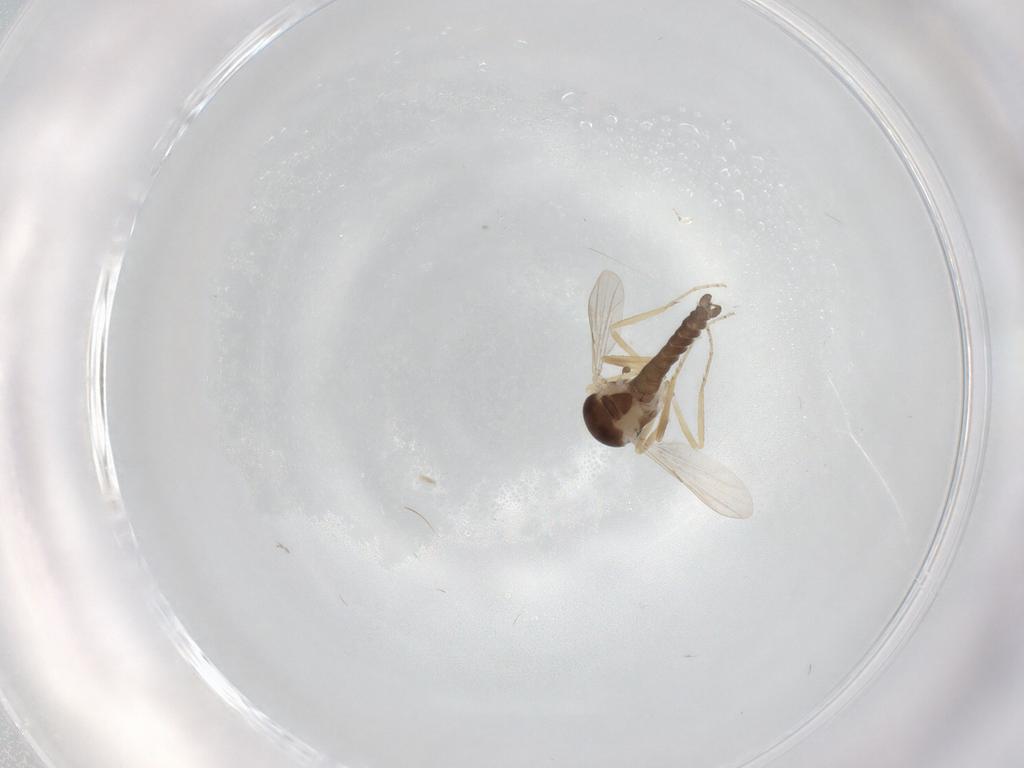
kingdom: Animalia
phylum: Arthropoda
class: Insecta
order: Diptera
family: Ceratopogonidae
